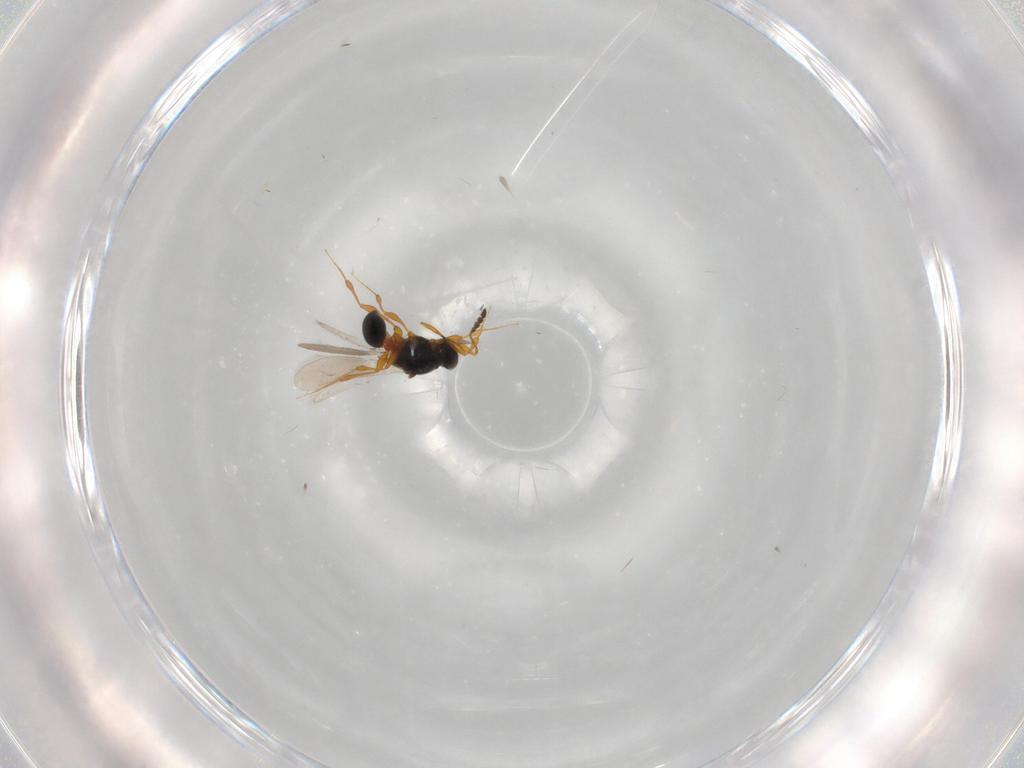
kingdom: Animalia
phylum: Arthropoda
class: Insecta
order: Hymenoptera
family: Platygastridae
